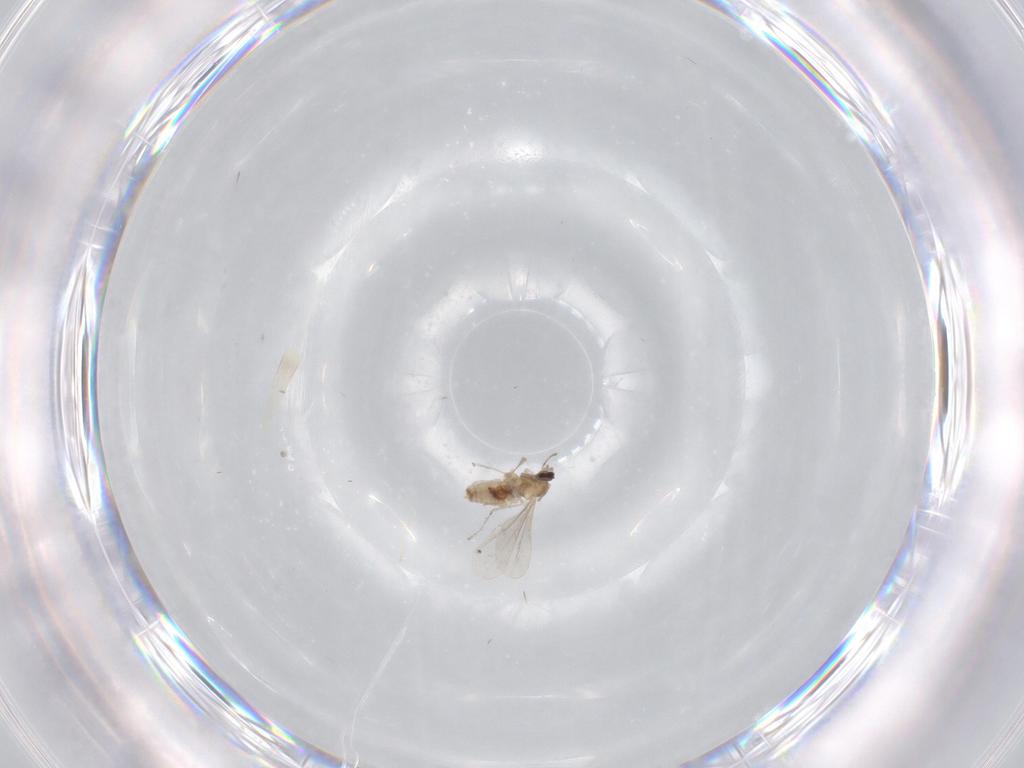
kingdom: Animalia
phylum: Arthropoda
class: Insecta
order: Diptera
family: Cecidomyiidae
